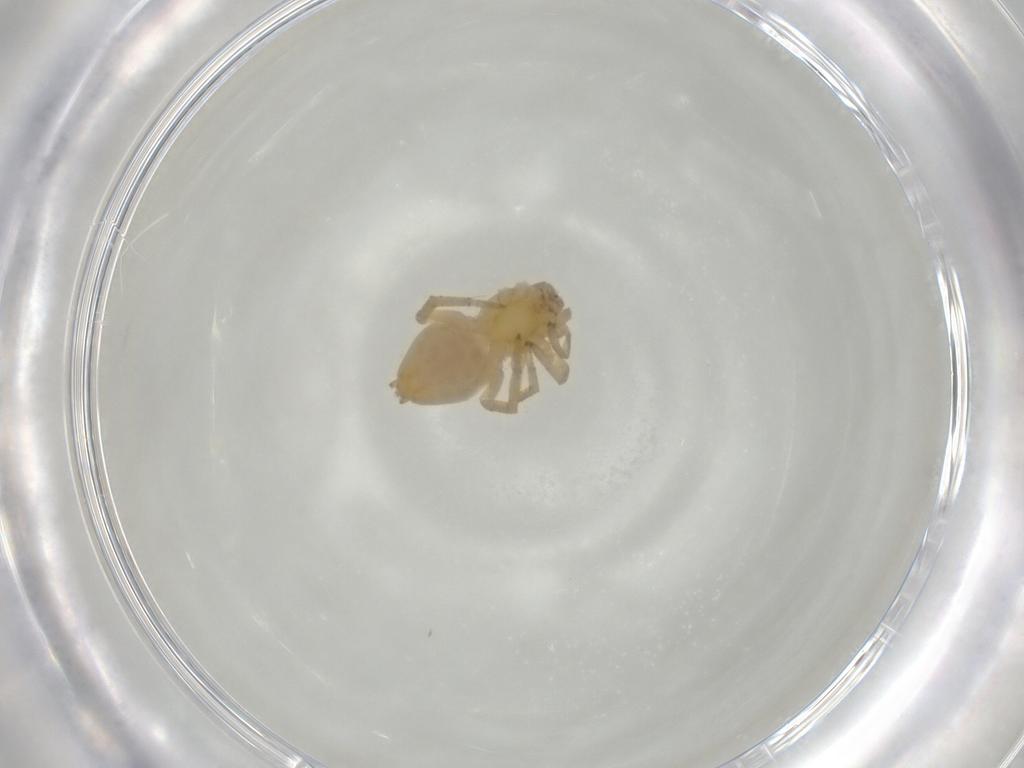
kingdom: Animalia
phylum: Arthropoda
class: Arachnida
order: Araneae
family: Clubionidae
